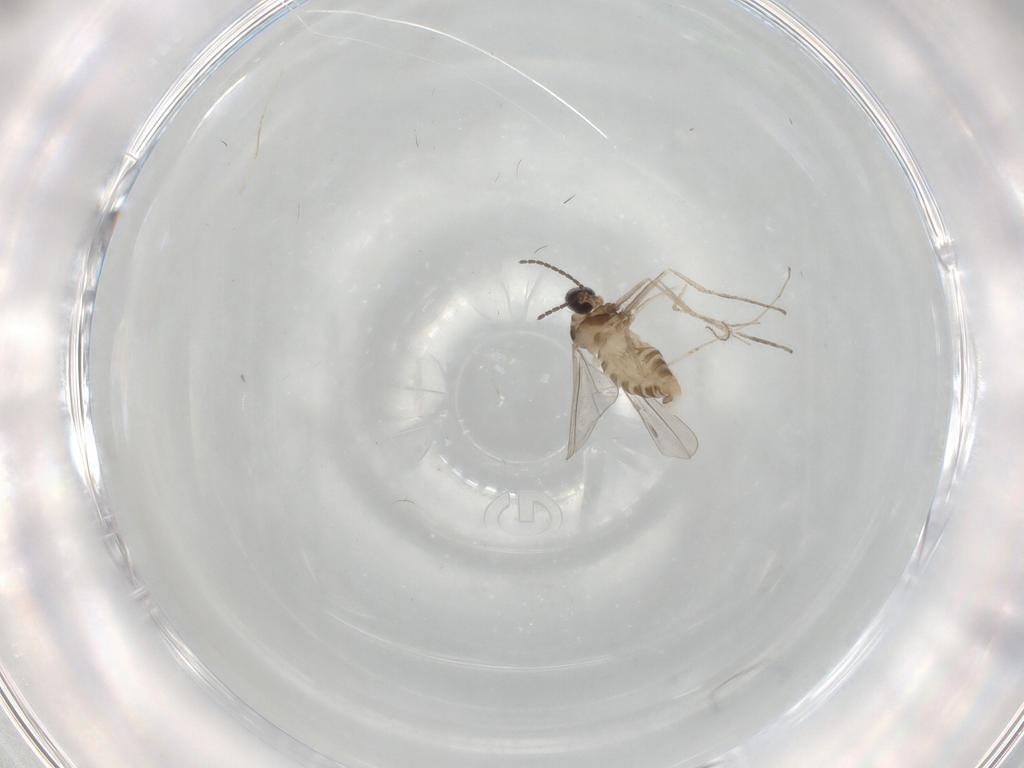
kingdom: Animalia
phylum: Arthropoda
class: Insecta
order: Diptera
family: Cecidomyiidae
